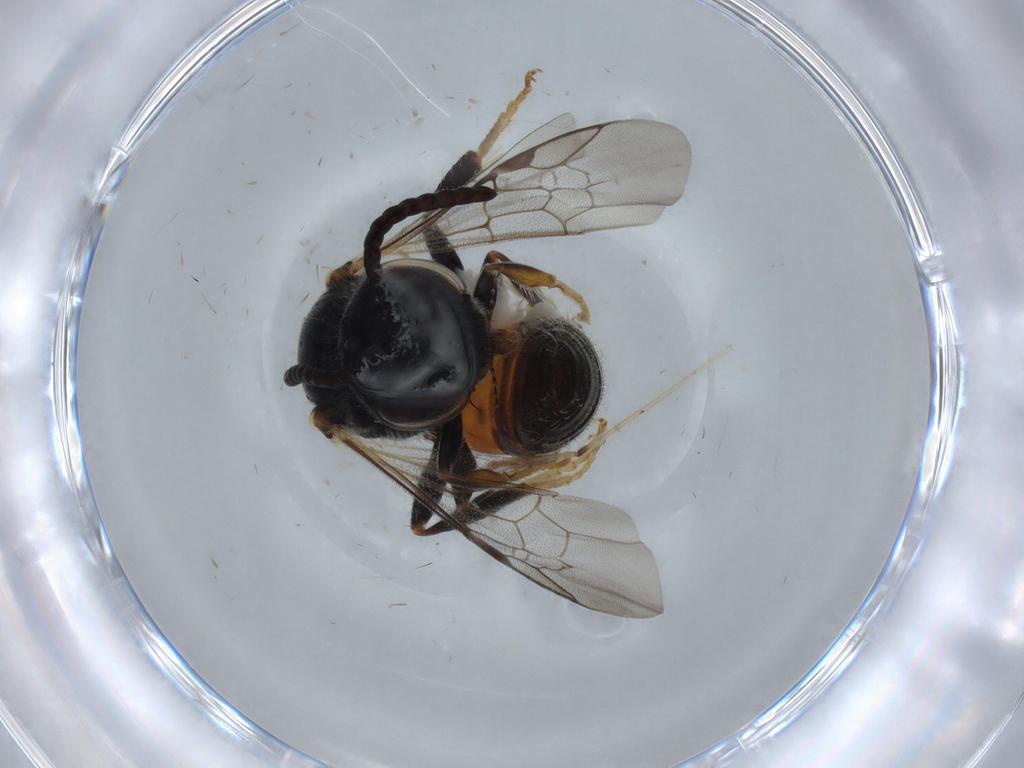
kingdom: Animalia
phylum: Arthropoda
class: Insecta
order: Hymenoptera
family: Halictidae
